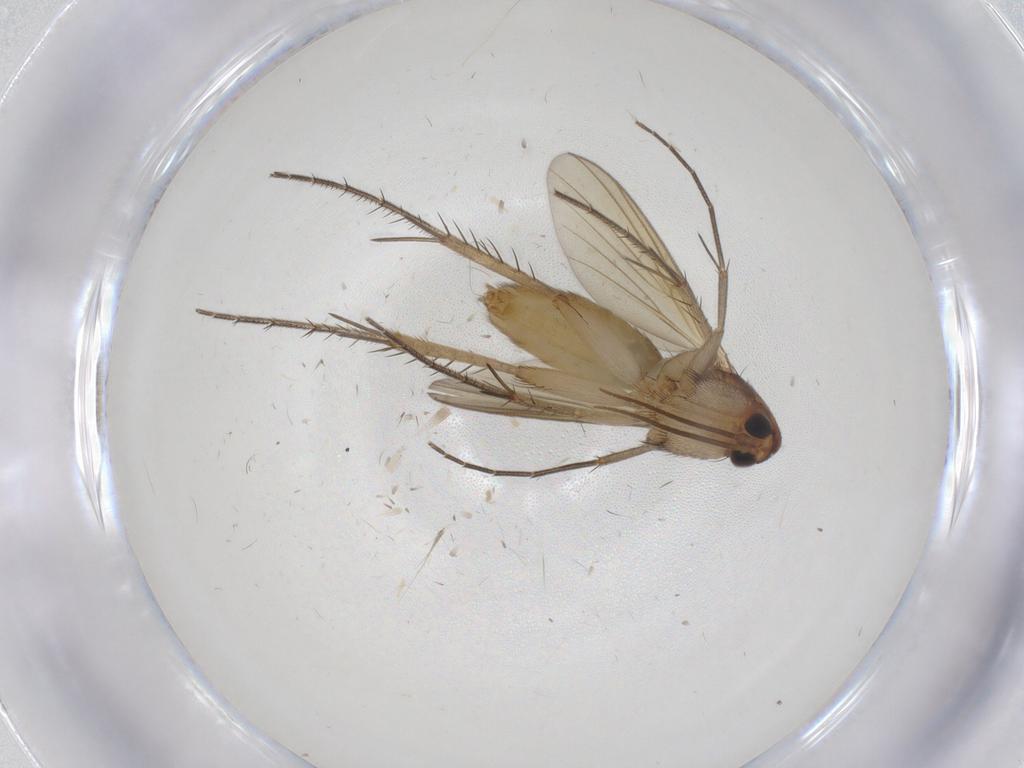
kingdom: Animalia
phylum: Arthropoda
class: Insecta
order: Diptera
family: Mycetophilidae
